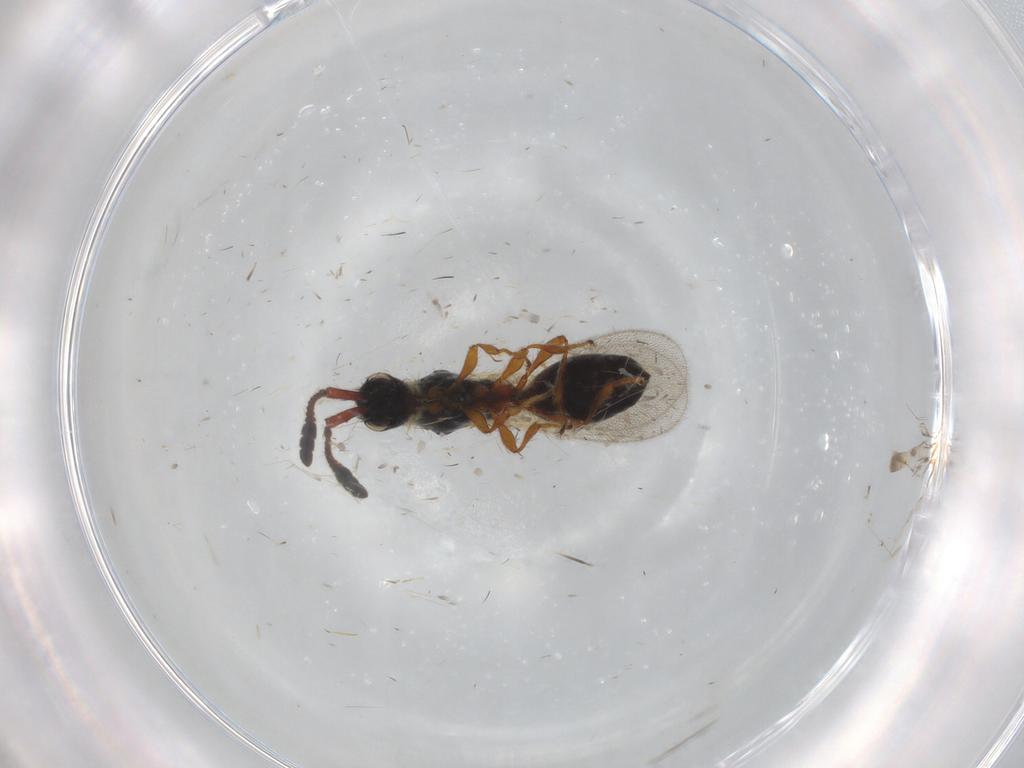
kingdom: Animalia
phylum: Arthropoda
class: Insecta
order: Hymenoptera
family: Diapriidae
